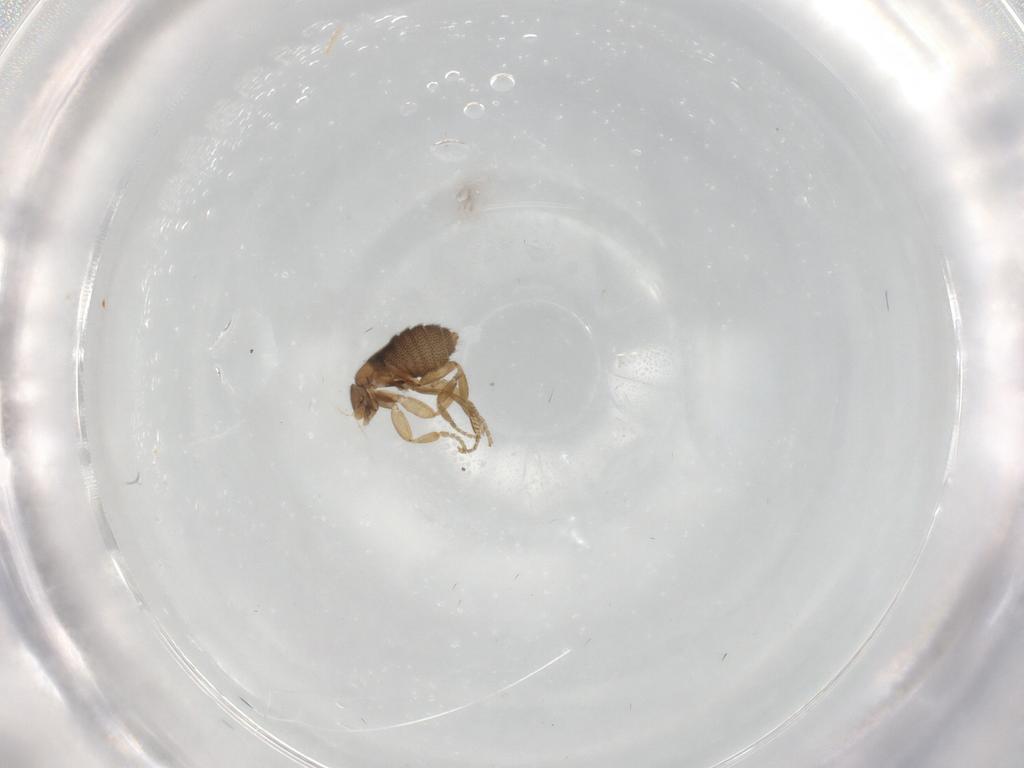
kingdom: Animalia
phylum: Arthropoda
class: Insecta
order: Diptera
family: Phoridae
